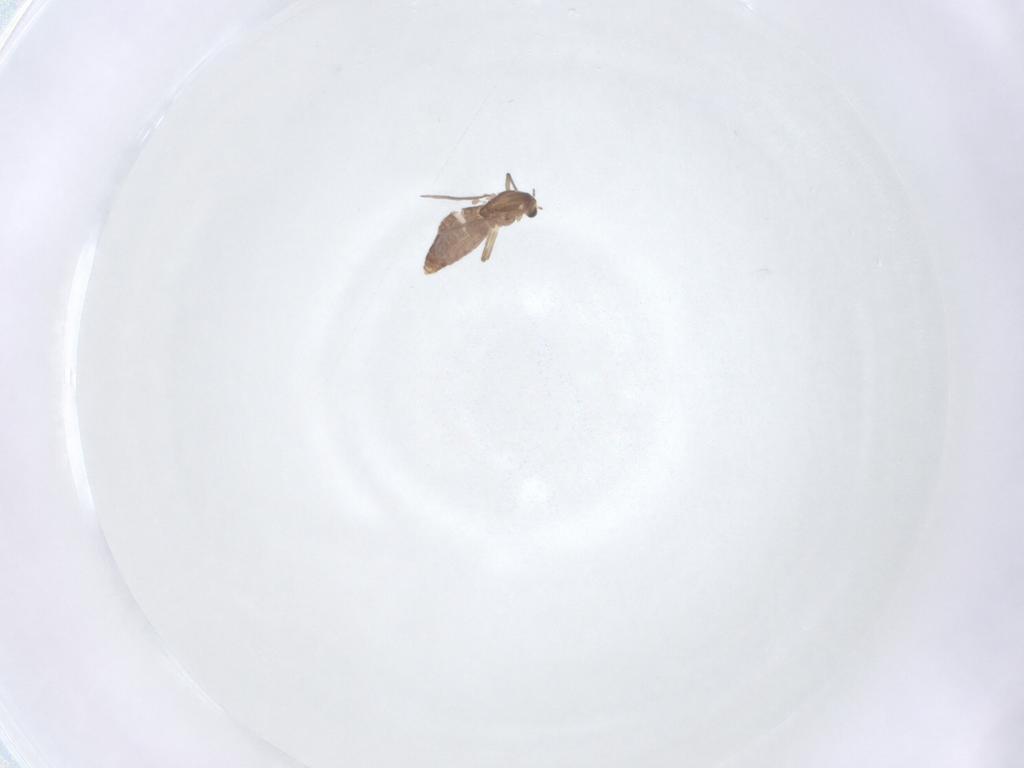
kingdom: Animalia
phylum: Arthropoda
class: Insecta
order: Diptera
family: Chironomidae
